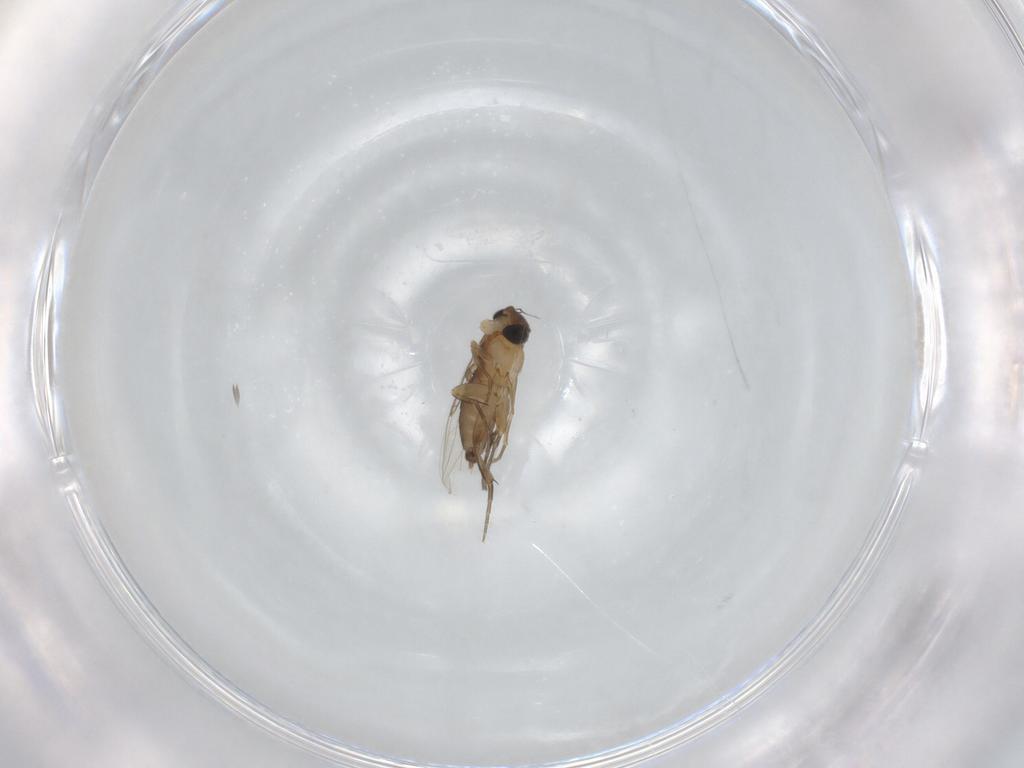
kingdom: Animalia
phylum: Arthropoda
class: Insecta
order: Diptera
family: Phoridae
